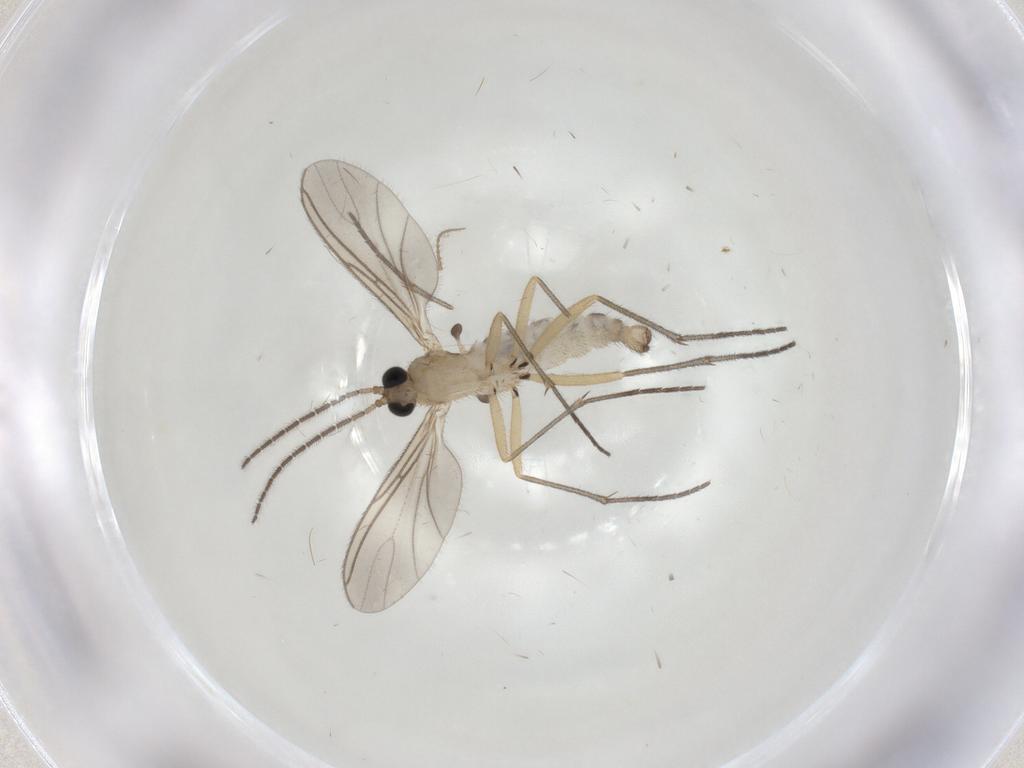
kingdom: Animalia
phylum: Arthropoda
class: Insecta
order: Diptera
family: Sciaridae
